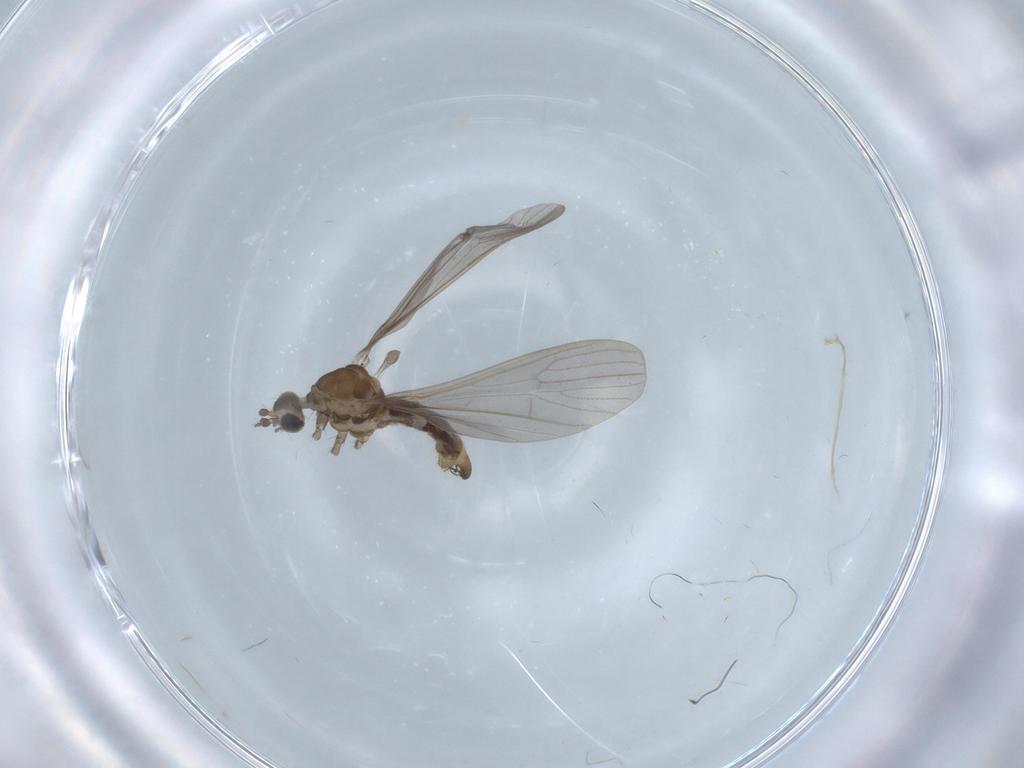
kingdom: Animalia
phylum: Arthropoda
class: Insecta
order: Diptera
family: Limoniidae
